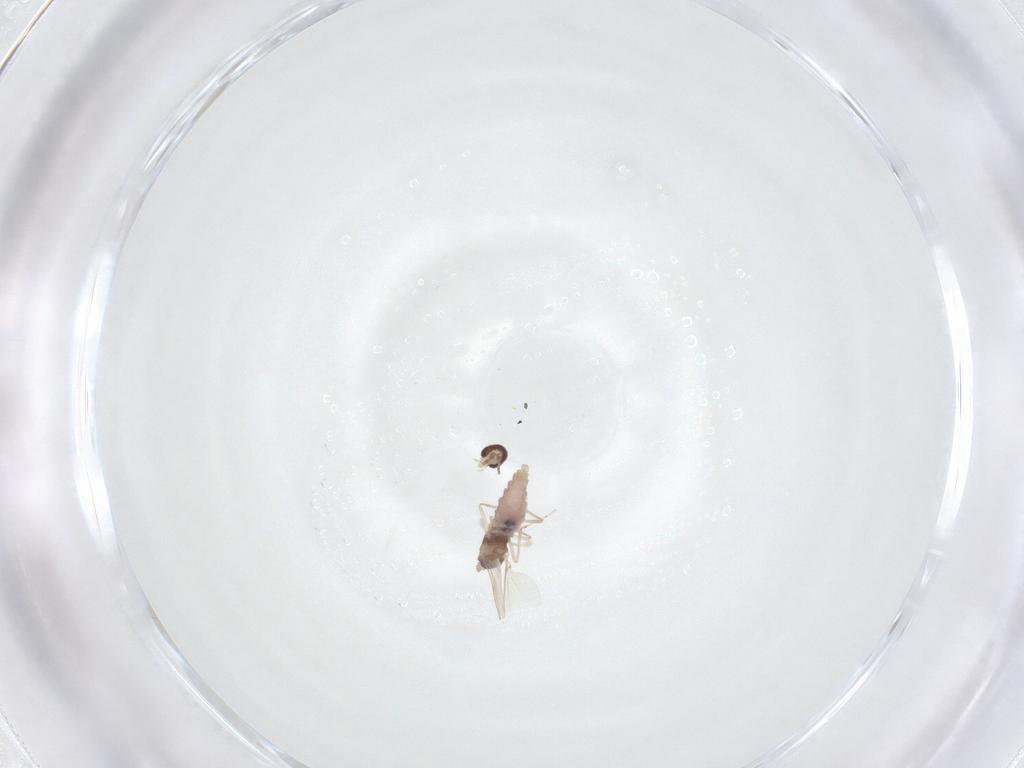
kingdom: Animalia
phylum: Arthropoda
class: Insecta
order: Diptera
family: Cecidomyiidae
